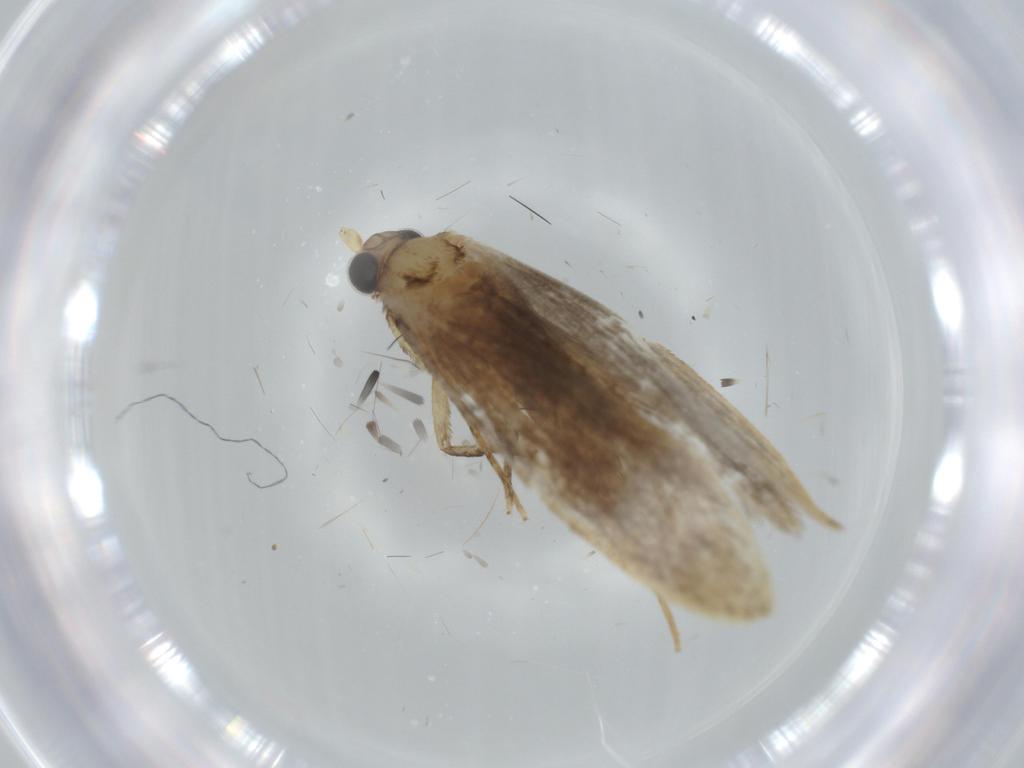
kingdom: Animalia
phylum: Arthropoda
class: Insecta
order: Lepidoptera
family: Tineidae
